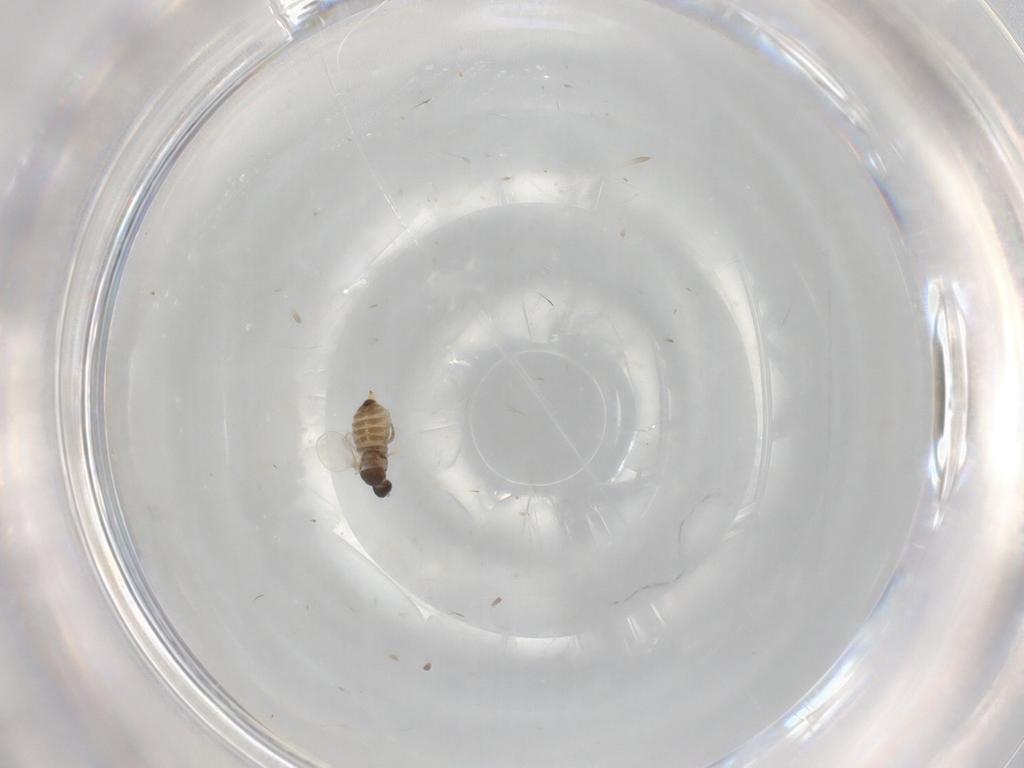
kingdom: Animalia
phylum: Arthropoda
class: Insecta
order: Diptera
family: Cecidomyiidae
